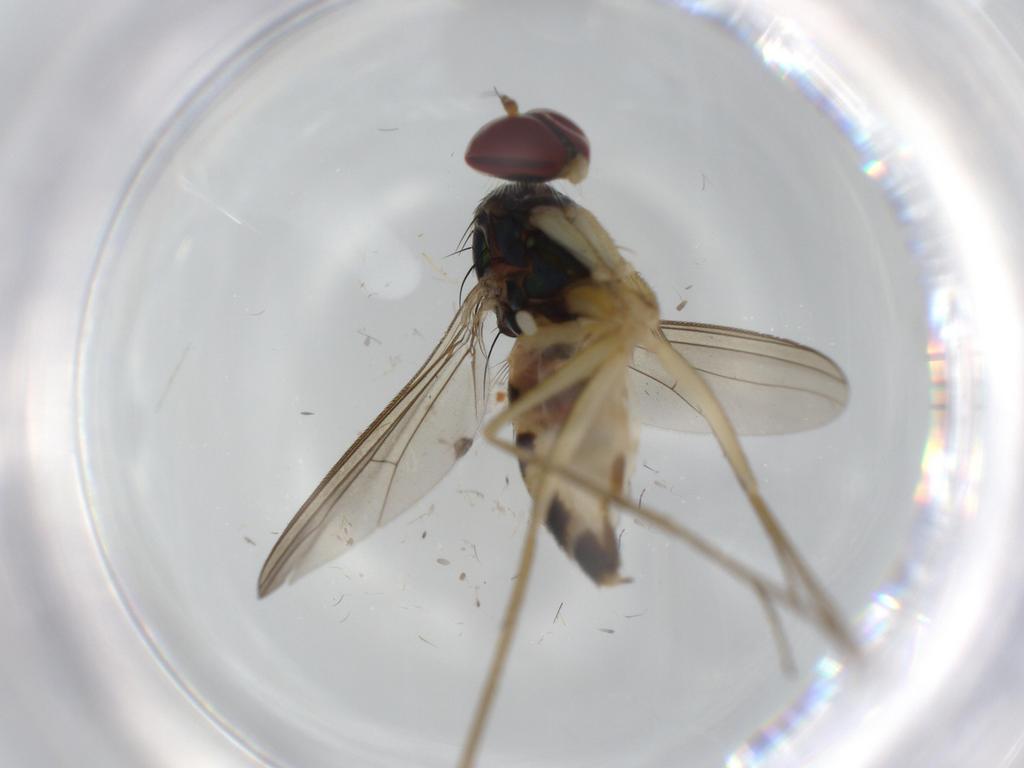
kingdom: Animalia
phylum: Arthropoda
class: Insecta
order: Diptera
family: Dolichopodidae
